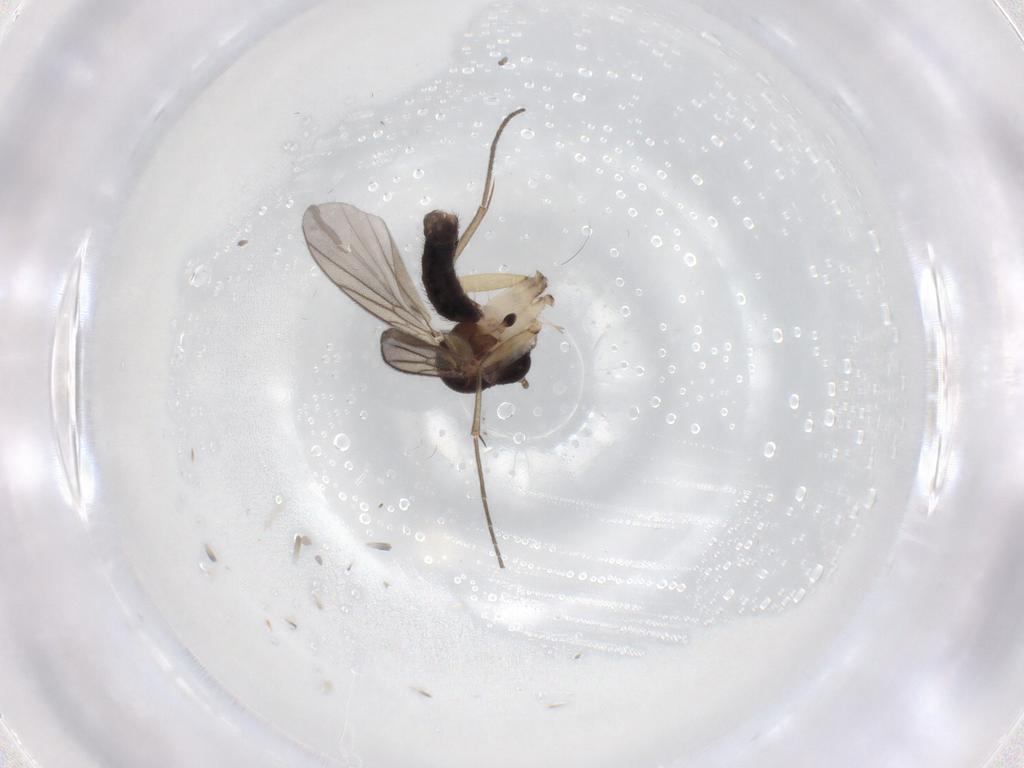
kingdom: Animalia
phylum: Arthropoda
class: Insecta
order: Diptera
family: Mycetophilidae
